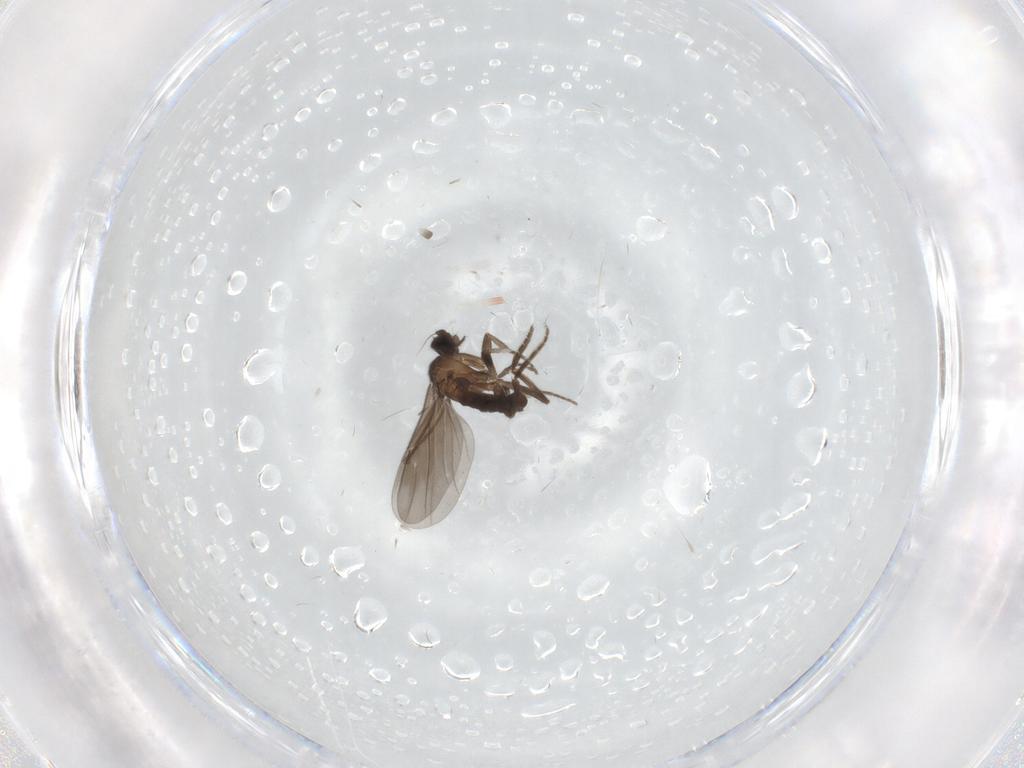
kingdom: Animalia
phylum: Arthropoda
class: Insecta
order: Diptera
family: Phoridae
